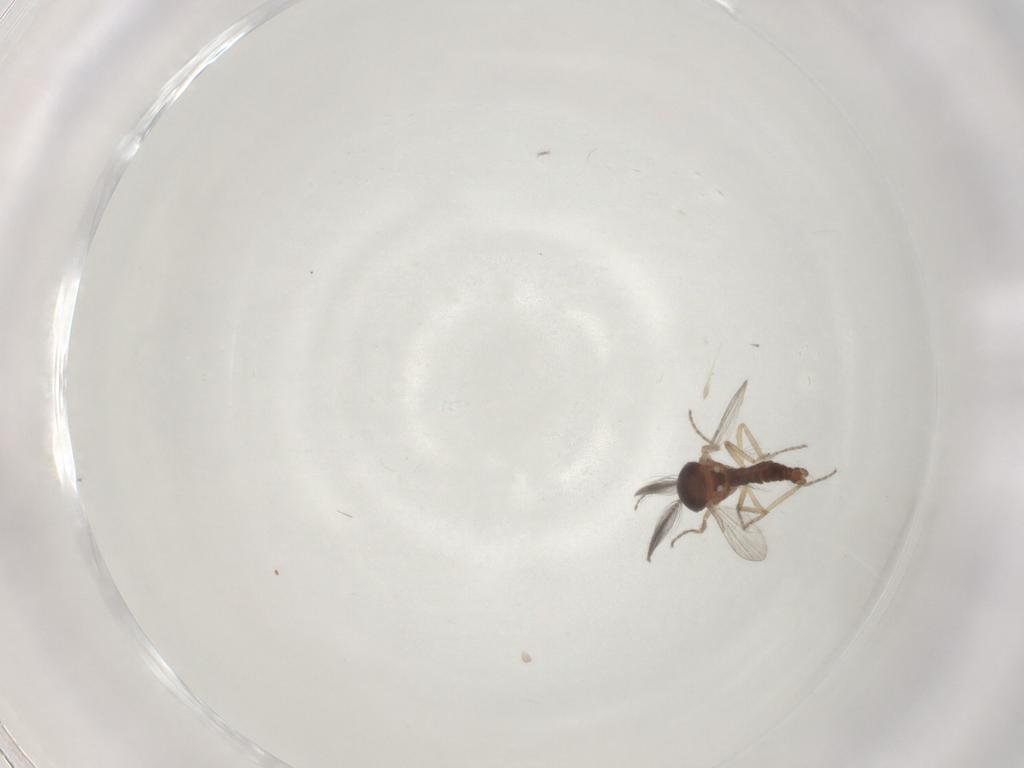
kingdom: Animalia
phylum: Arthropoda
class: Insecta
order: Diptera
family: Ceratopogonidae
